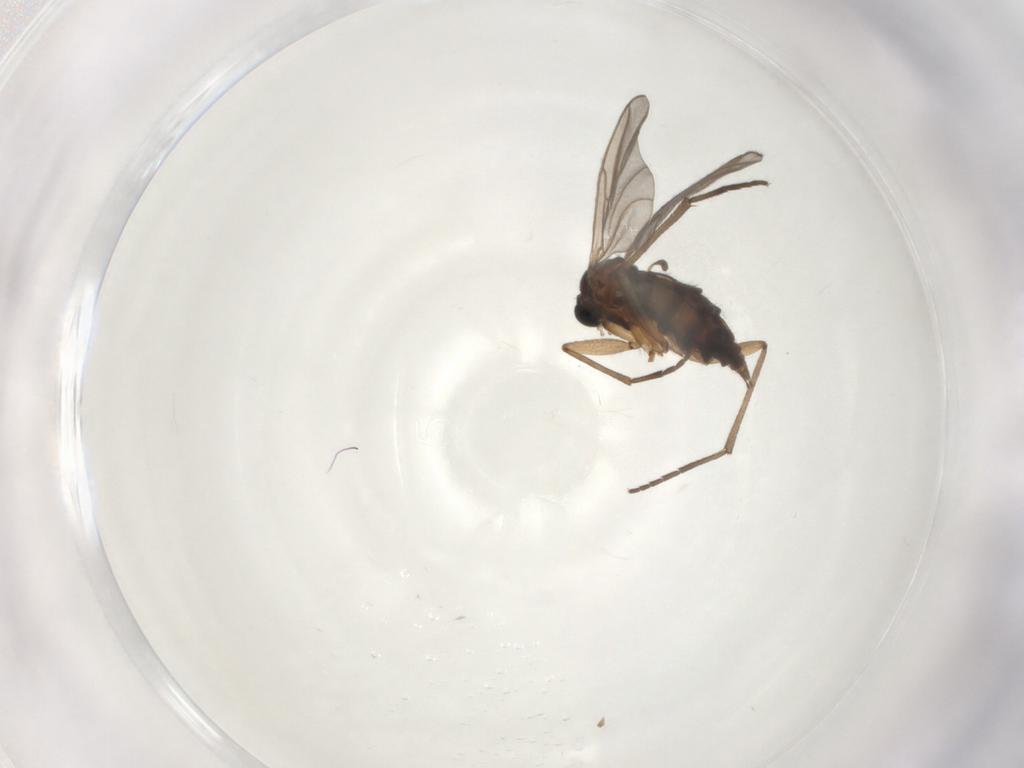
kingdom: Animalia
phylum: Arthropoda
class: Insecta
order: Diptera
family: Sciaridae
